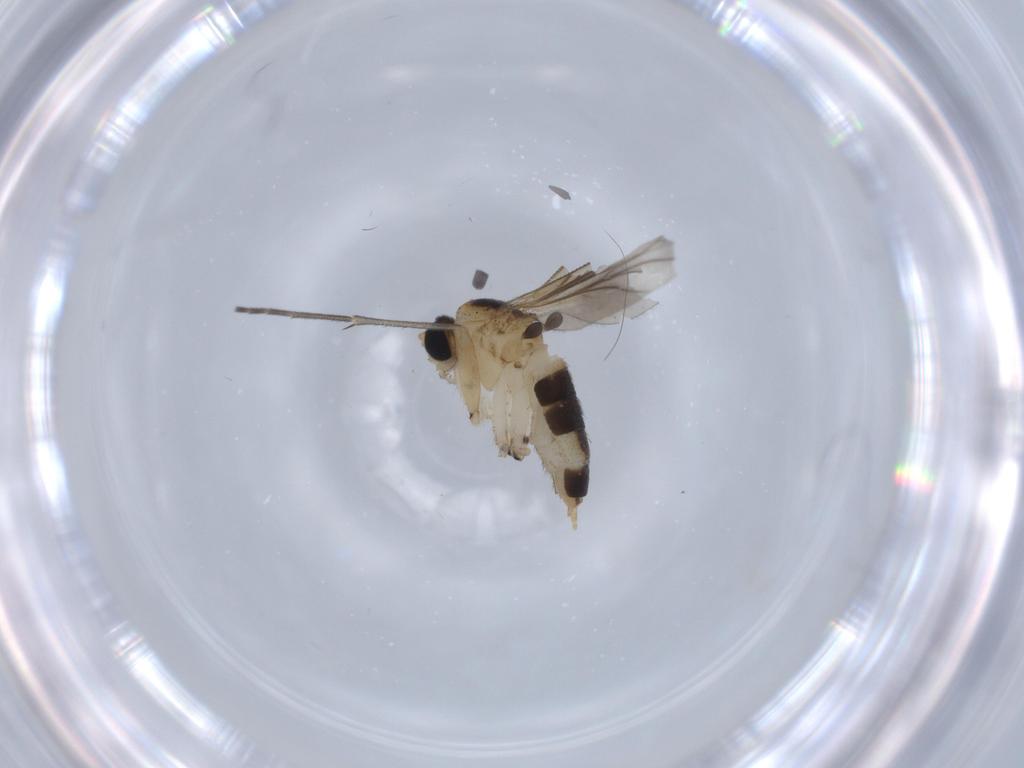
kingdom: Animalia
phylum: Arthropoda
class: Insecta
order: Diptera
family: Sciaridae
